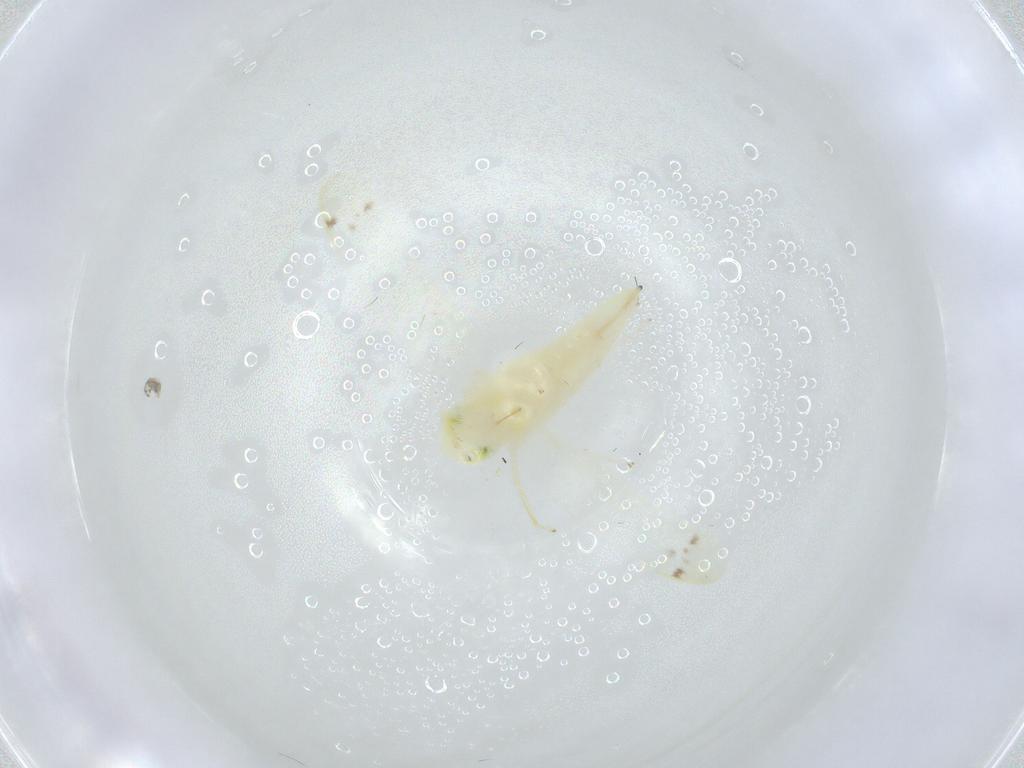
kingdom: Animalia
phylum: Arthropoda
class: Insecta
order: Hemiptera
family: Cicadellidae
